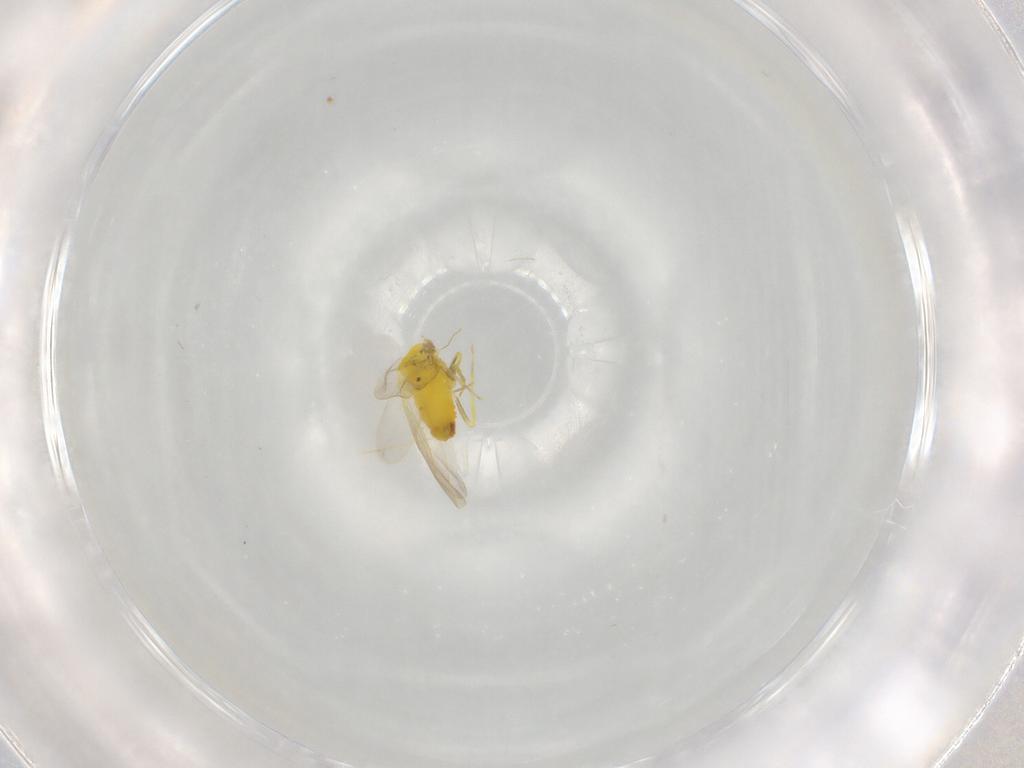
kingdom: Animalia
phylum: Arthropoda
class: Insecta
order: Hemiptera
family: Aleyrodidae
